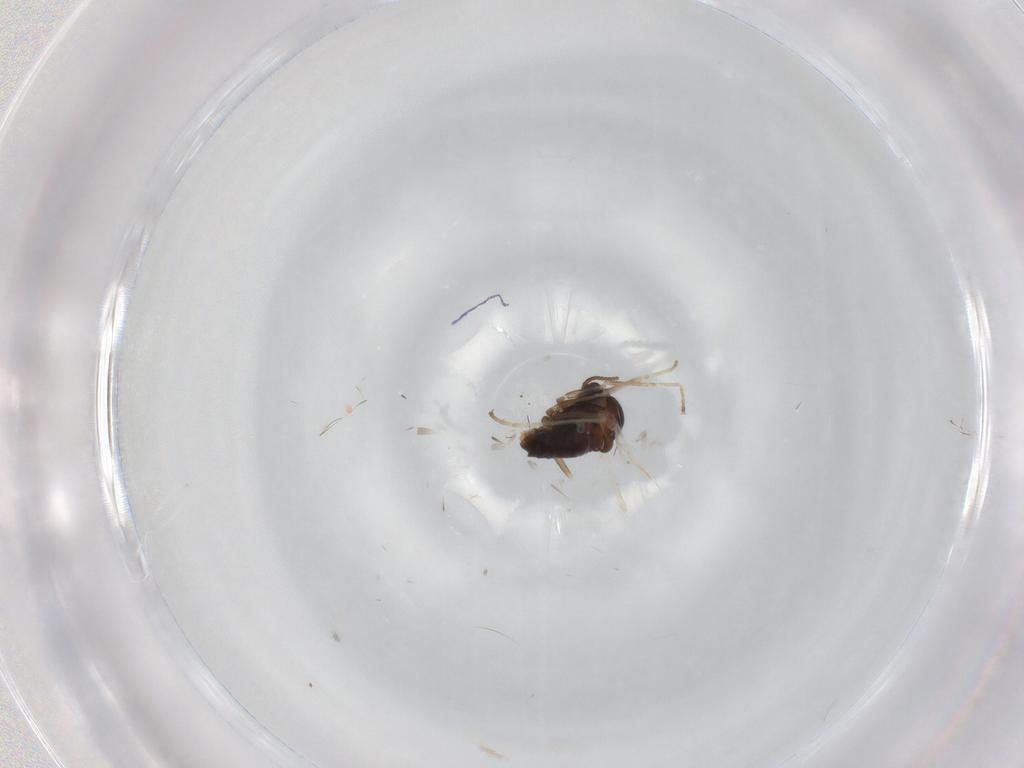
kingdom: Animalia
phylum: Arthropoda
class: Insecta
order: Diptera
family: Cecidomyiidae
